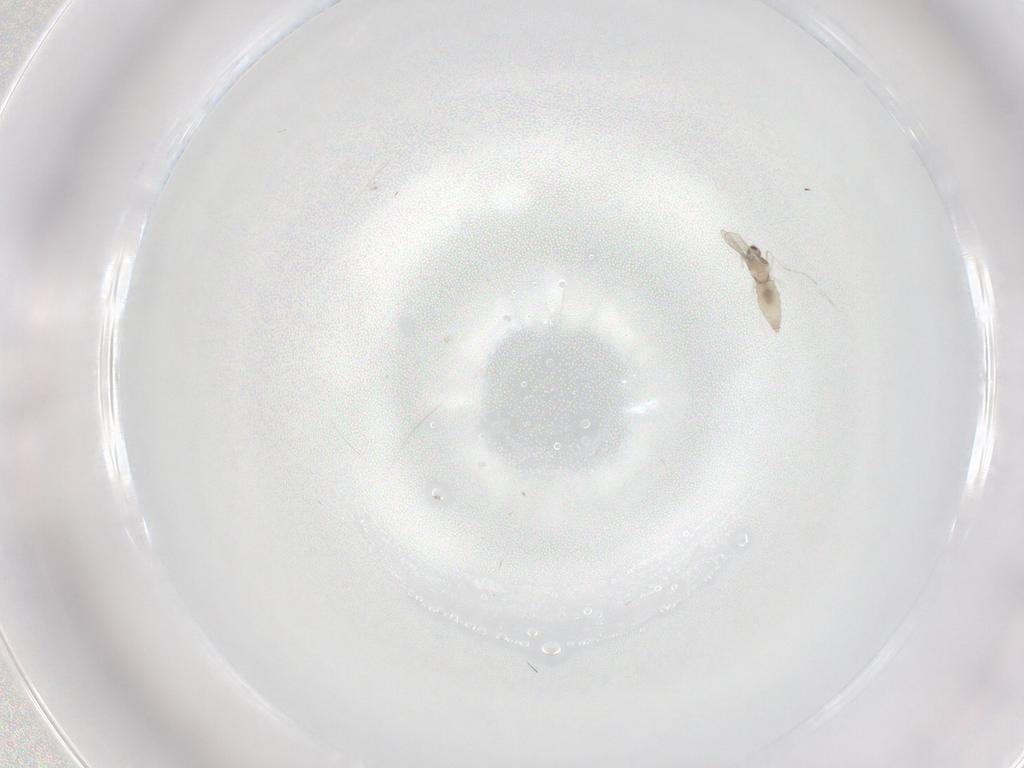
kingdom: Animalia
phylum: Arthropoda
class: Insecta
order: Diptera
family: Cecidomyiidae
